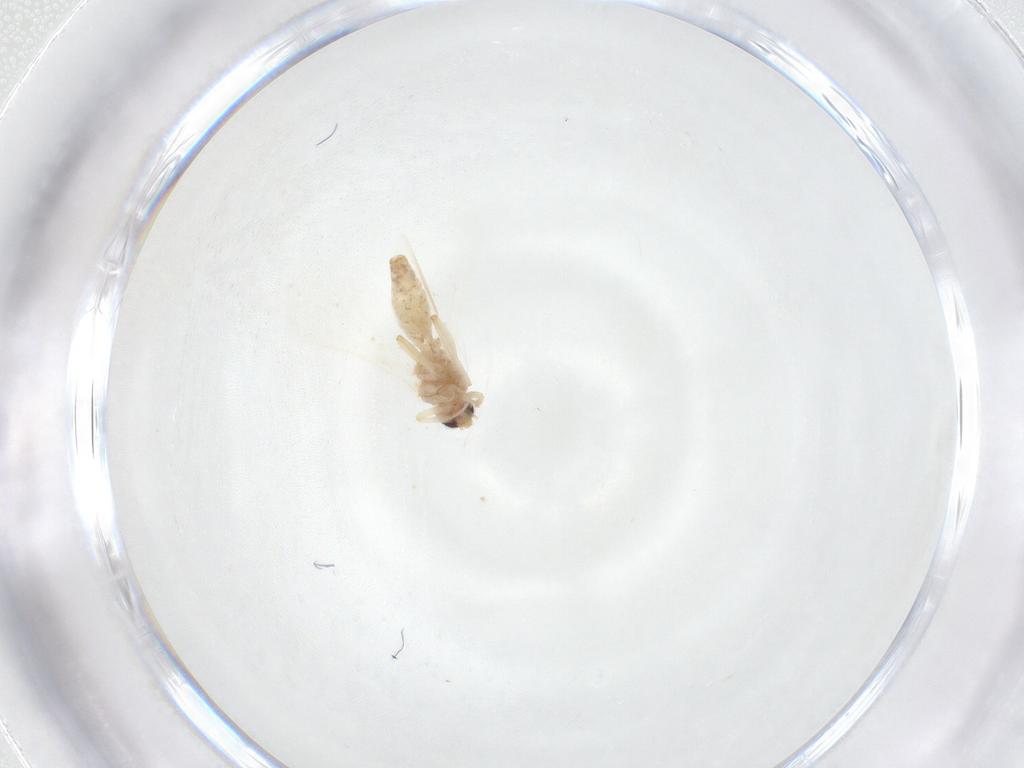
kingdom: Animalia
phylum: Arthropoda
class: Insecta
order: Neuroptera
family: Coniopterygidae
